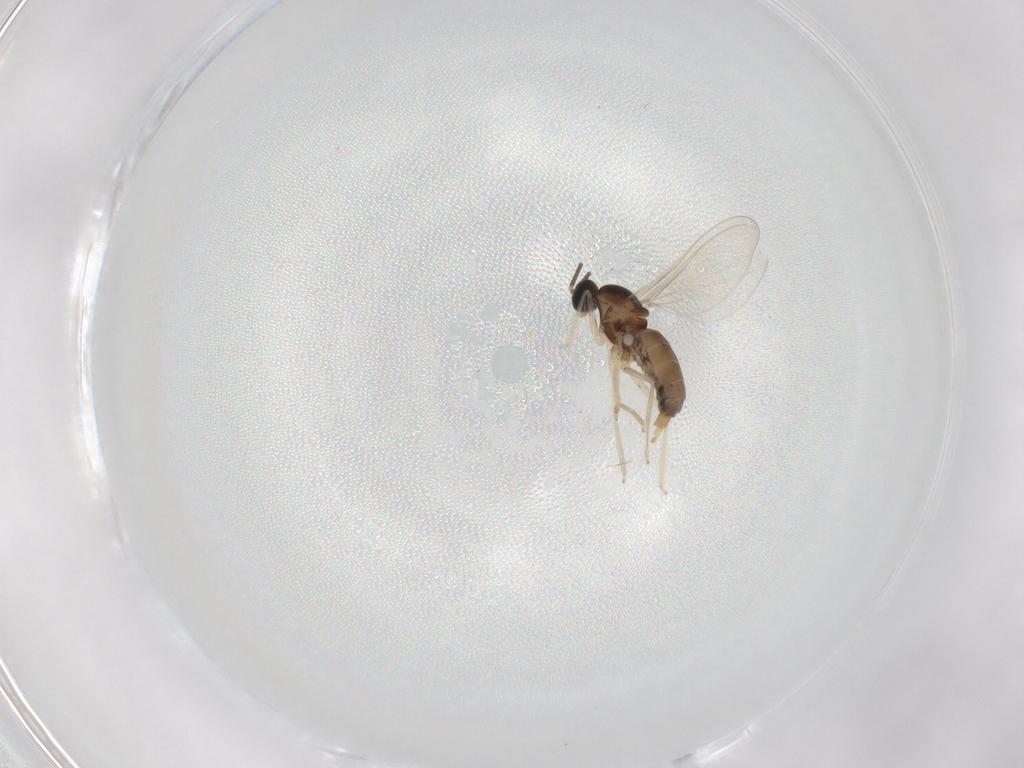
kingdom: Animalia
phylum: Arthropoda
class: Insecta
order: Diptera
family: Cecidomyiidae
